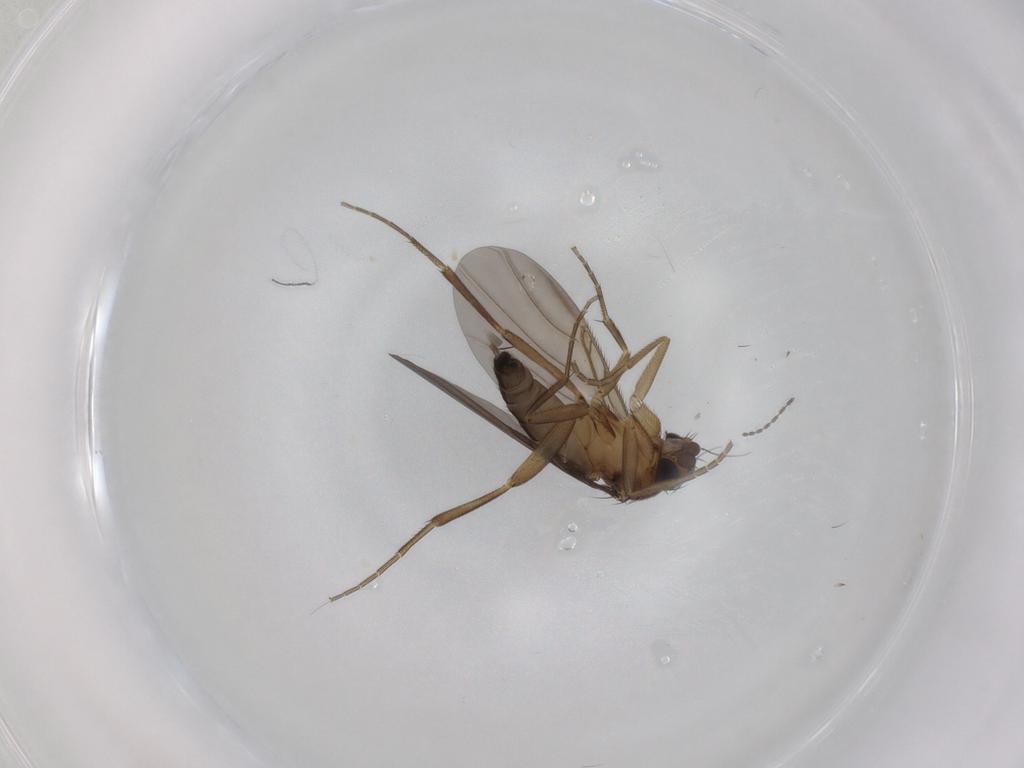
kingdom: Animalia
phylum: Arthropoda
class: Insecta
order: Diptera
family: Phoridae
